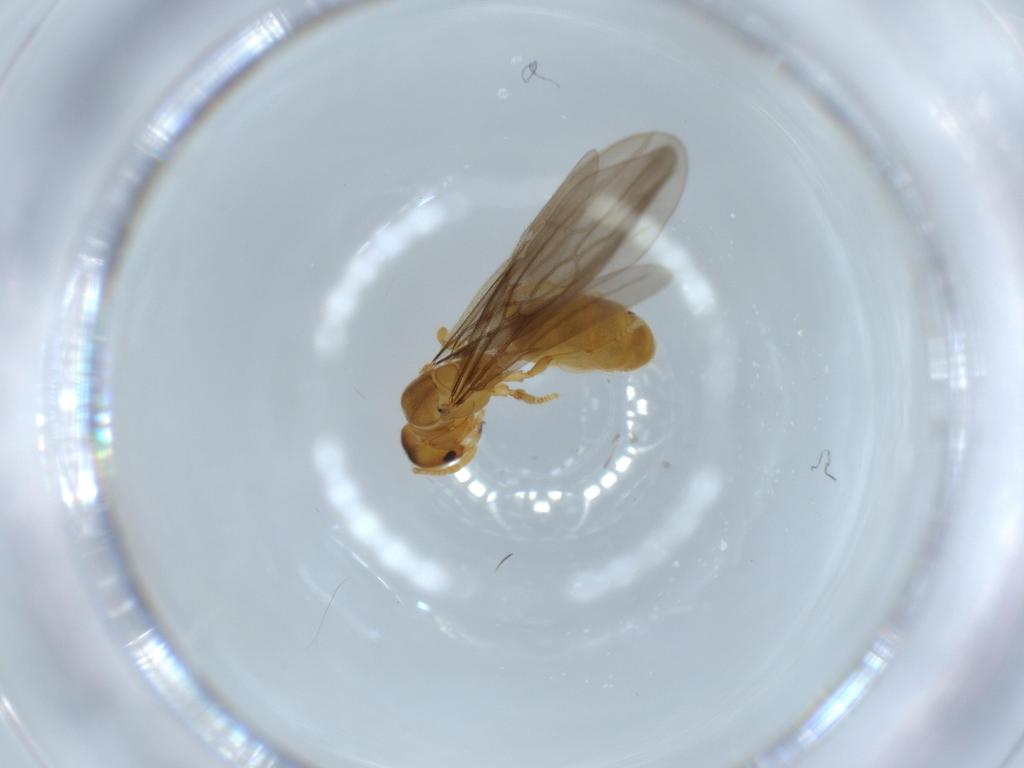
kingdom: Animalia
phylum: Arthropoda
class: Insecta
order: Hymenoptera
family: Formicidae
